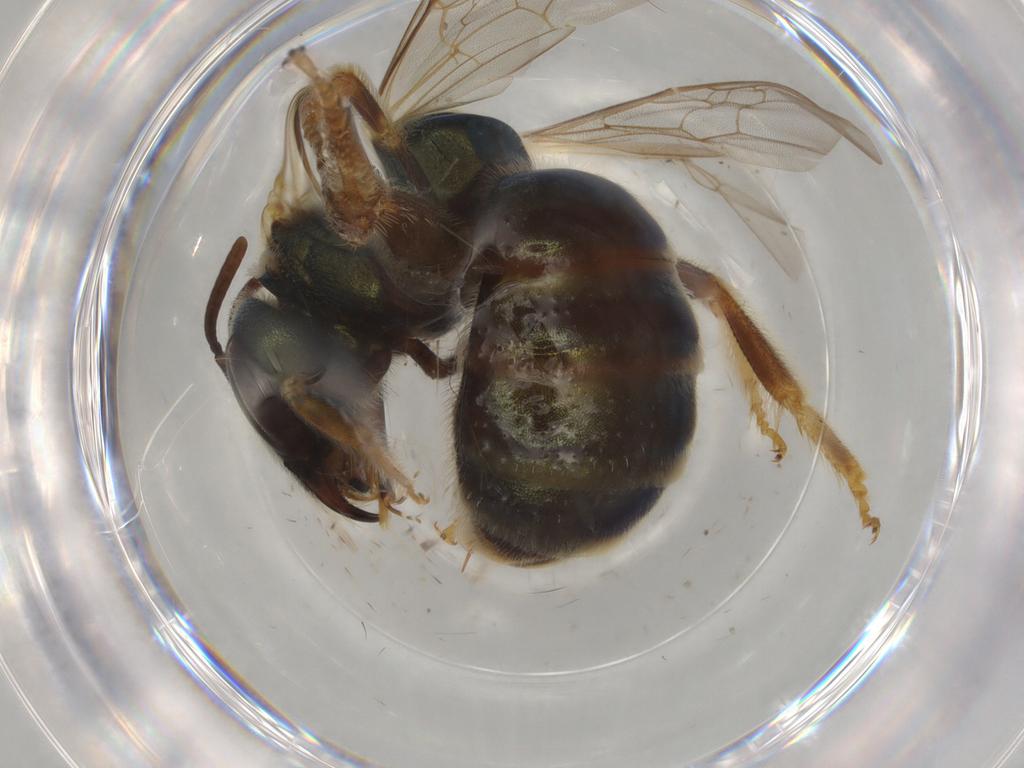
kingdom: Animalia
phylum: Arthropoda
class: Insecta
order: Hymenoptera
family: Halictidae
